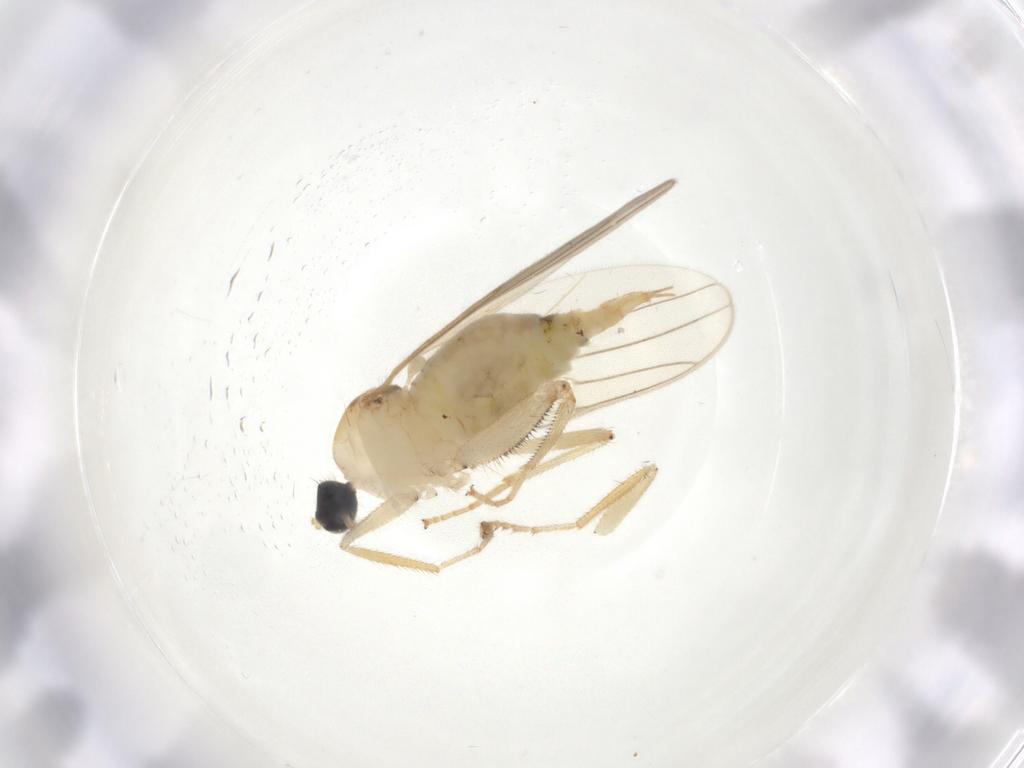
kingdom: Animalia
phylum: Arthropoda
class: Insecta
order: Diptera
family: Hybotidae
